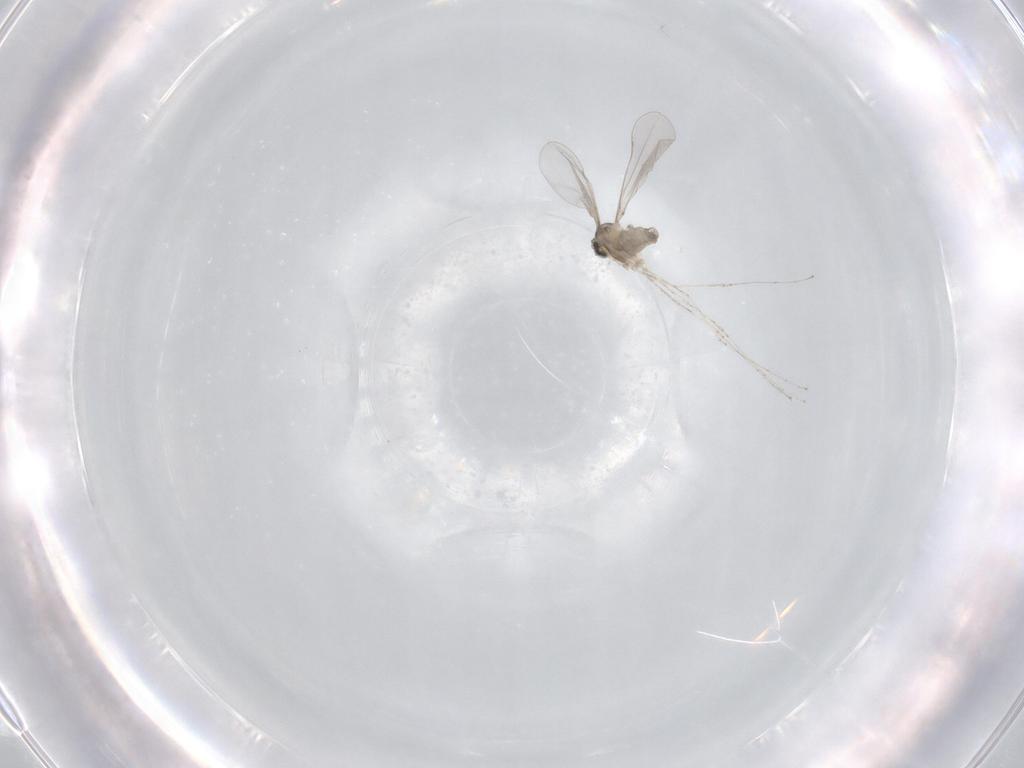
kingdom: Animalia
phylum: Arthropoda
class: Insecta
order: Diptera
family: Cecidomyiidae
